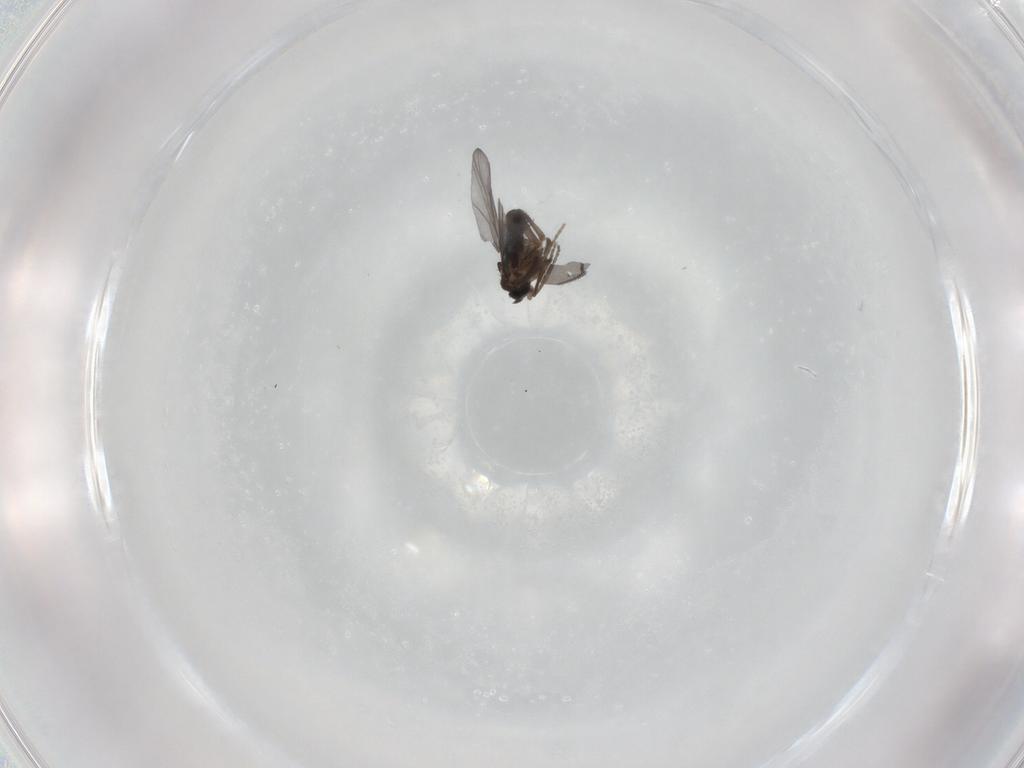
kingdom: Animalia
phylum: Arthropoda
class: Insecta
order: Diptera
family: Sciaridae
